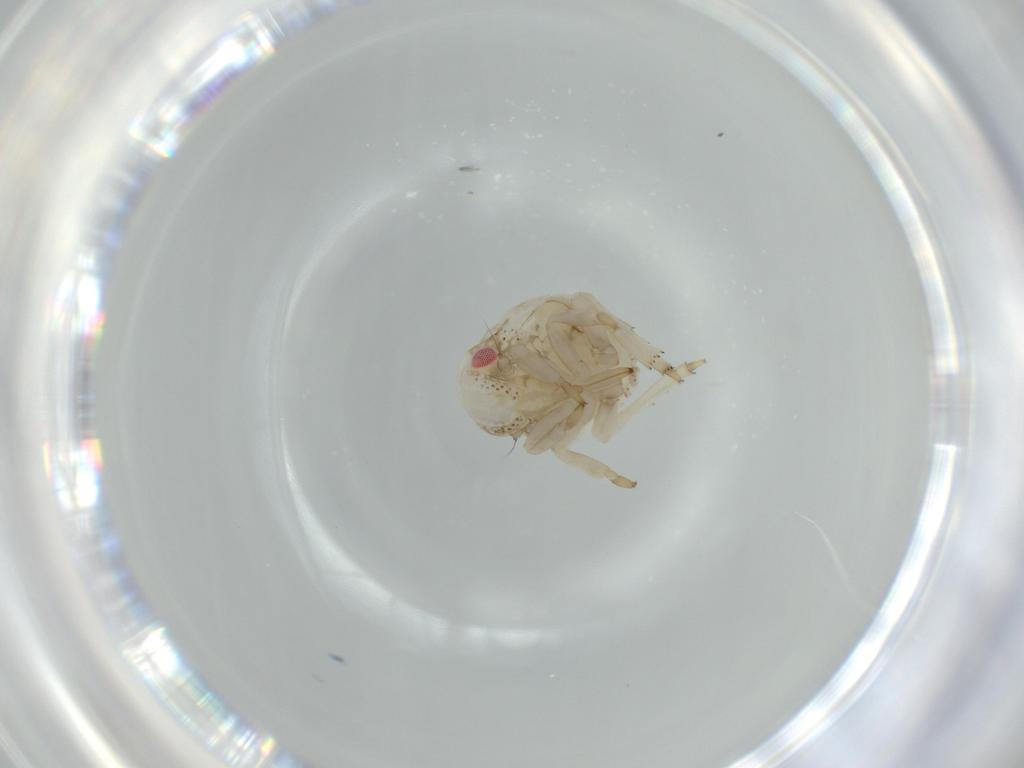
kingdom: Animalia
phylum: Arthropoda
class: Insecta
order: Hemiptera
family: Acanaloniidae
